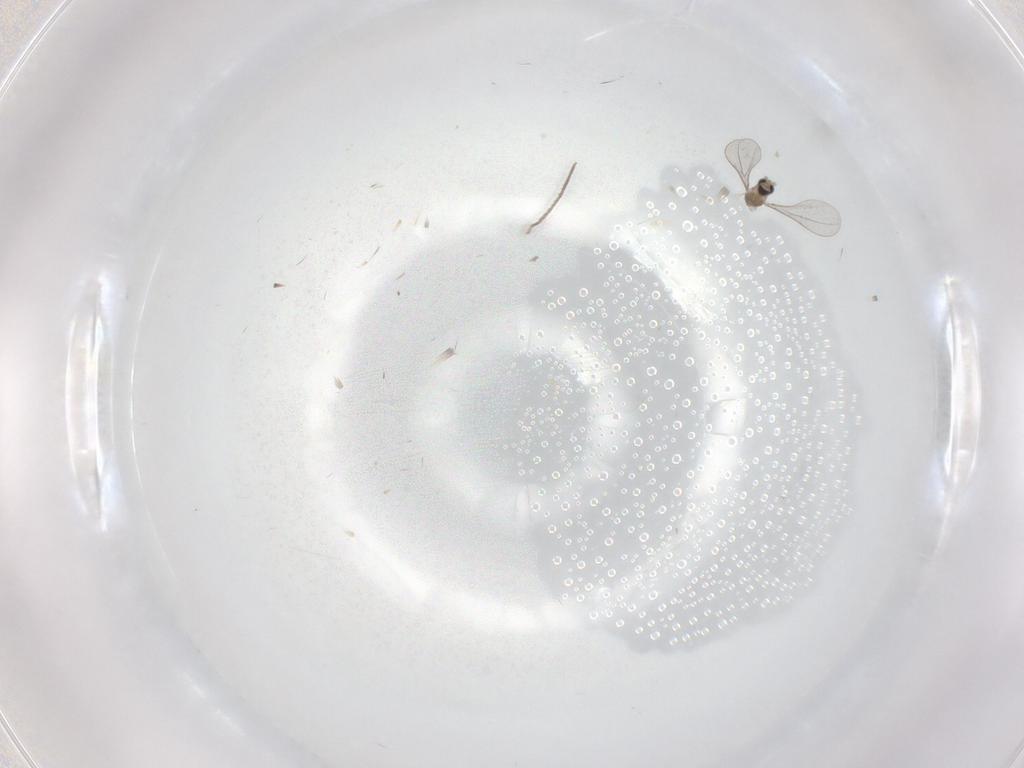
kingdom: Animalia
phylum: Arthropoda
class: Insecta
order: Diptera
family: Chironomidae
